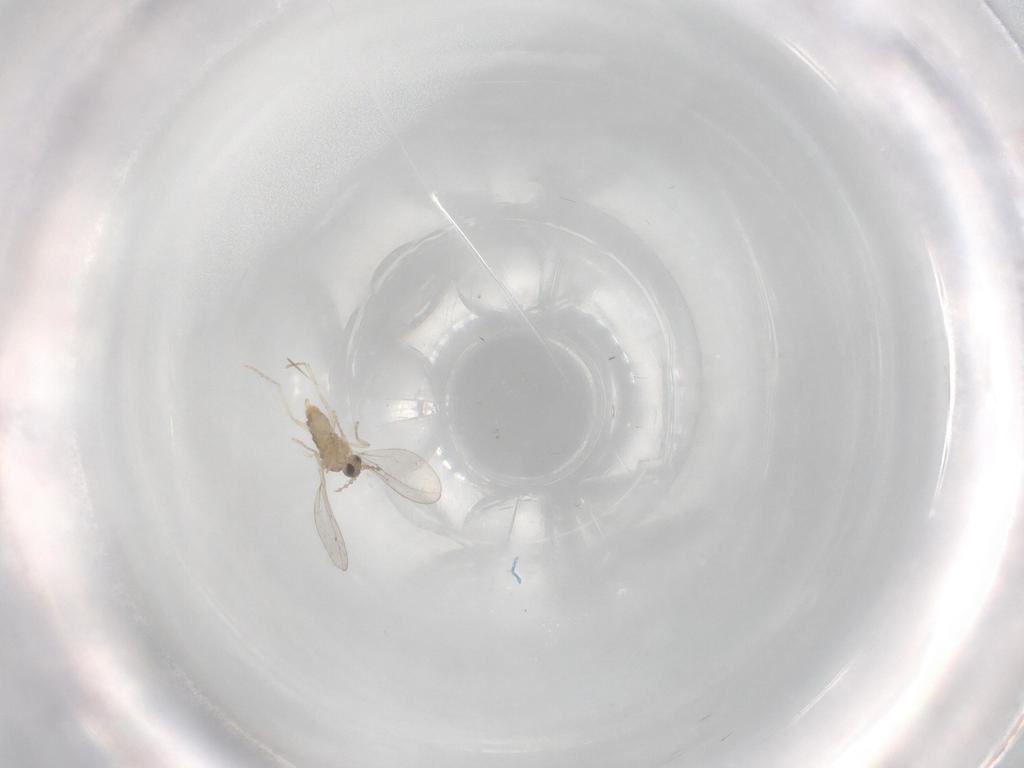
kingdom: Animalia
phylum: Arthropoda
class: Insecta
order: Diptera
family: Cecidomyiidae
